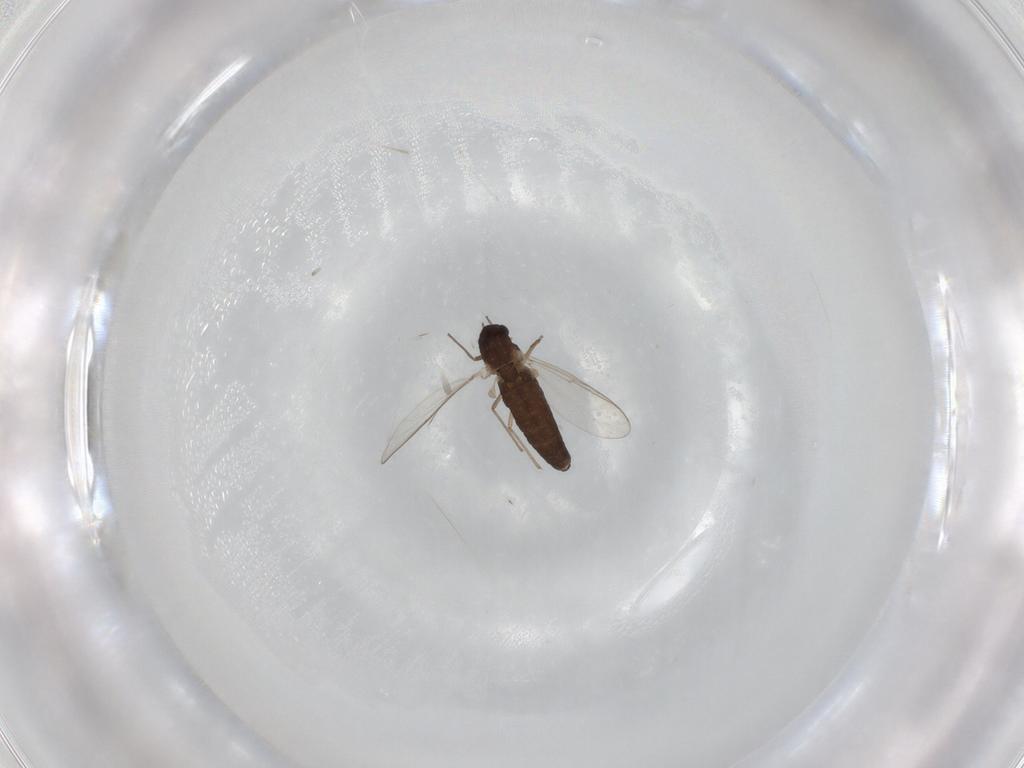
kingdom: Animalia
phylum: Arthropoda
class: Insecta
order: Diptera
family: Chironomidae
